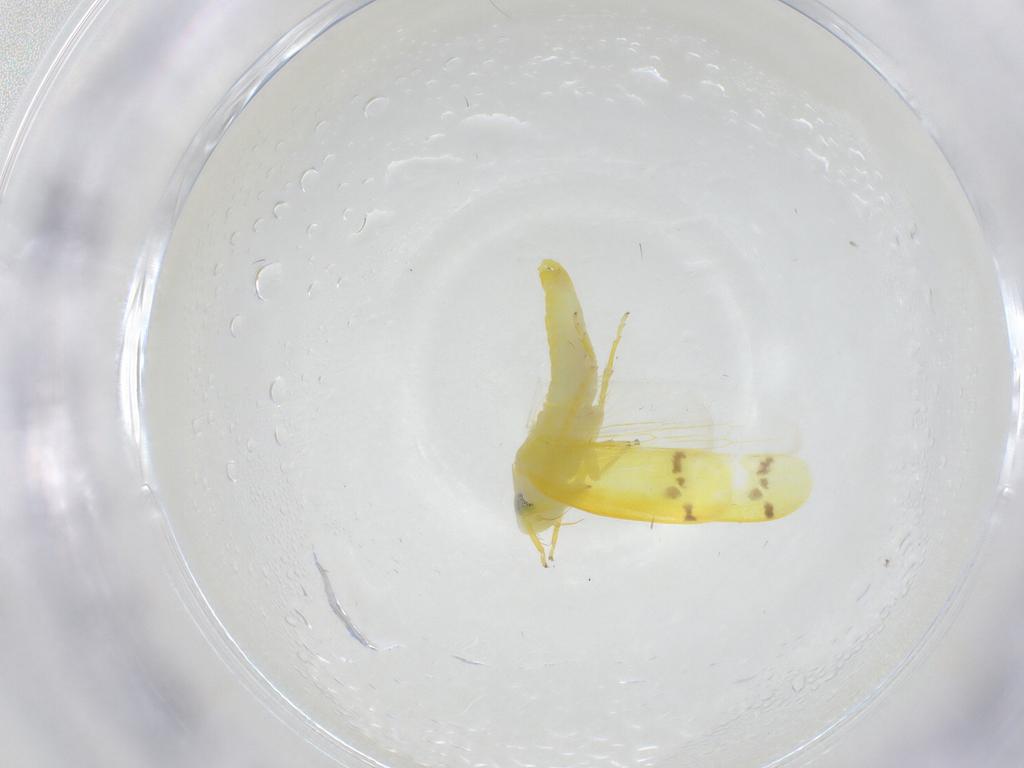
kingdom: Animalia
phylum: Arthropoda
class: Insecta
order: Hemiptera
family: Cicadellidae
